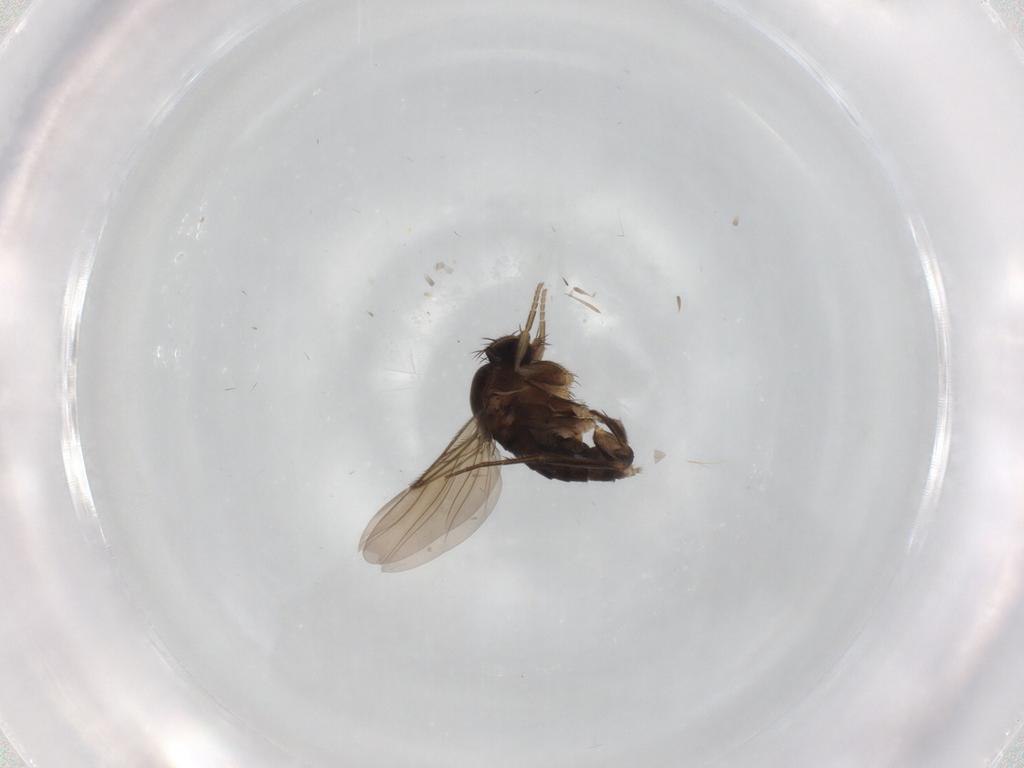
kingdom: Animalia
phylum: Arthropoda
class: Insecta
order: Diptera
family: Phoridae
